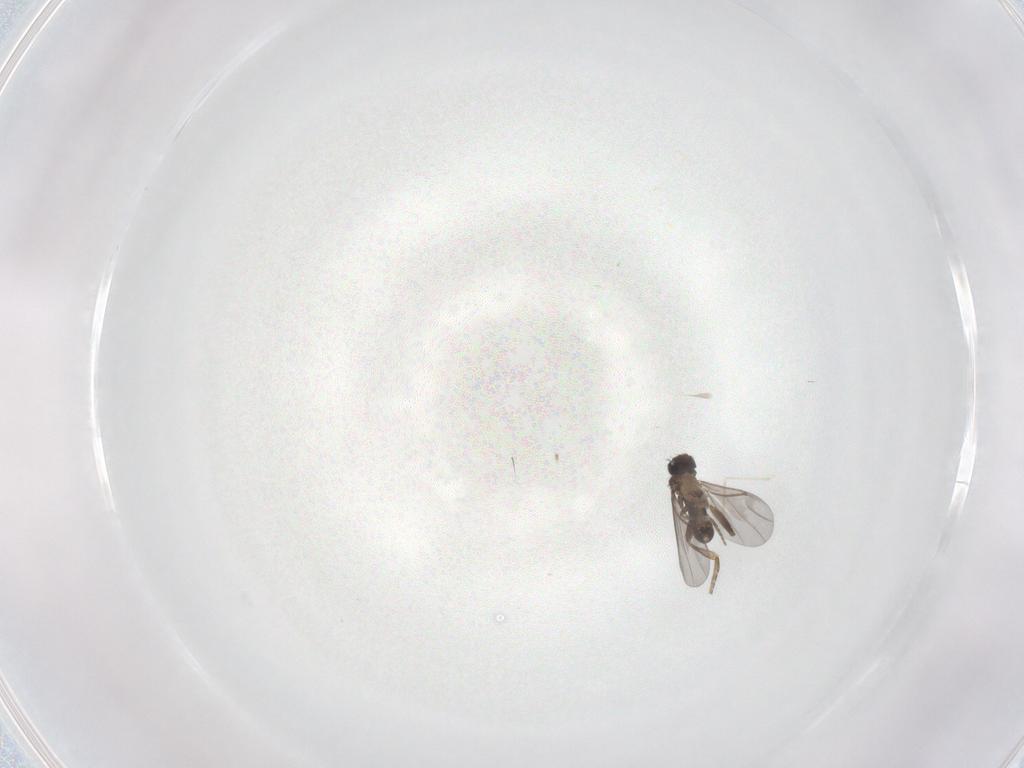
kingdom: Animalia
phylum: Arthropoda
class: Insecta
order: Diptera
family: Cecidomyiidae
